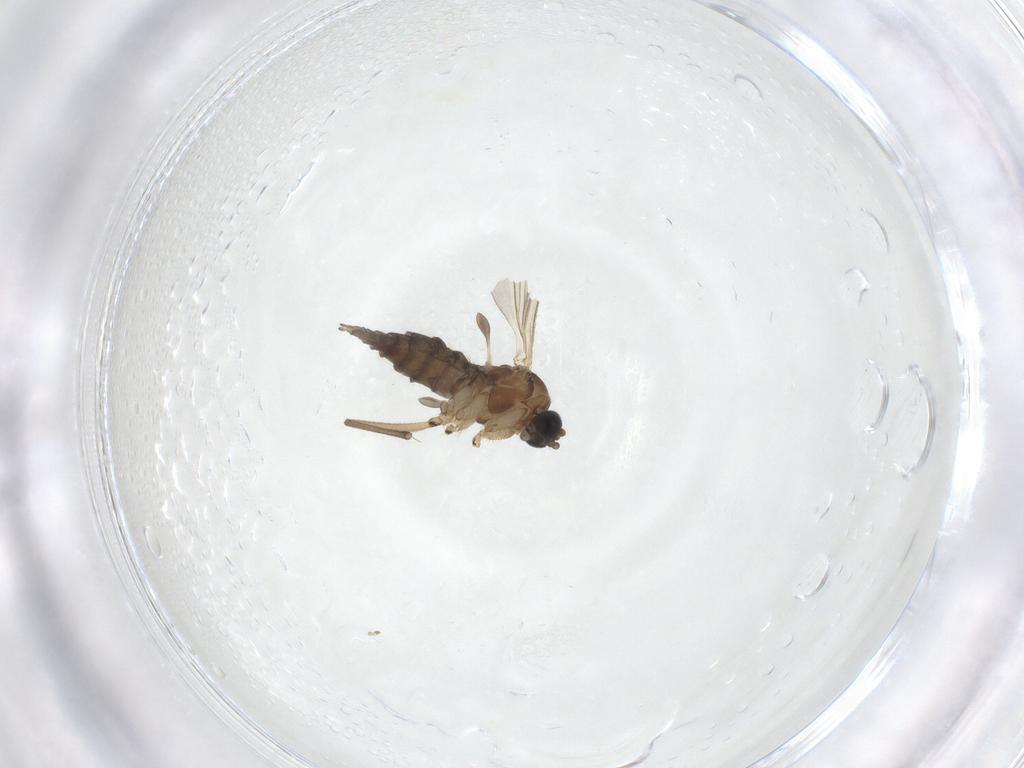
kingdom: Animalia
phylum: Arthropoda
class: Insecta
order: Diptera
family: Sciaridae
